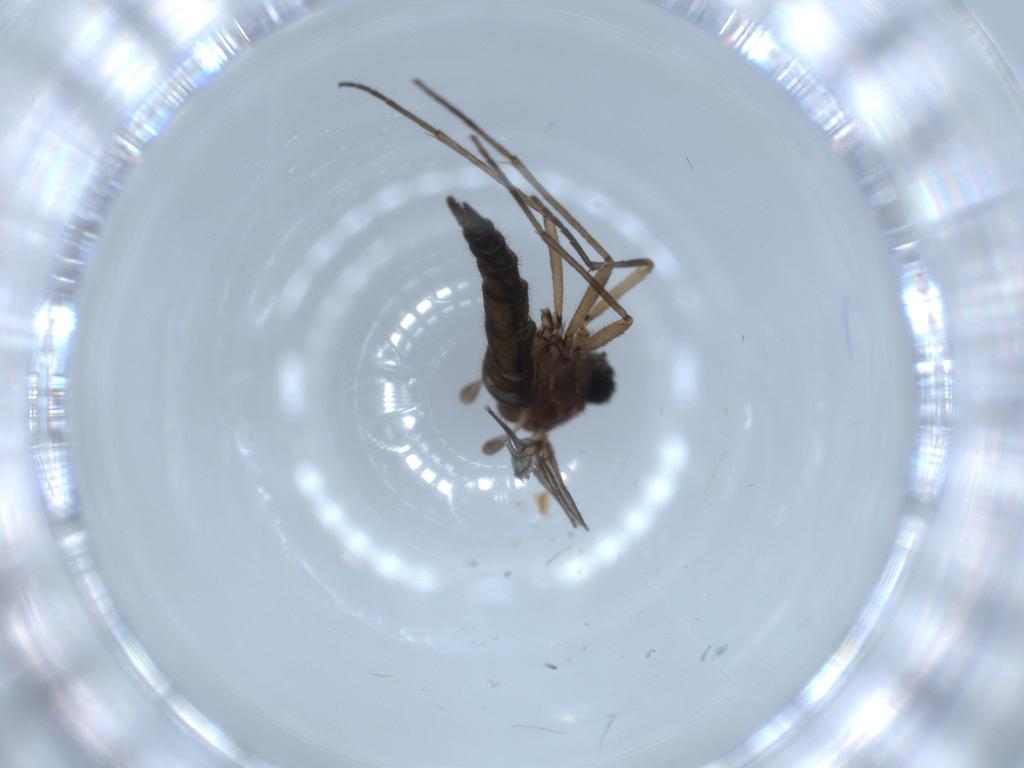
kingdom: Animalia
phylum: Arthropoda
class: Insecta
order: Diptera
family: Sciaridae
